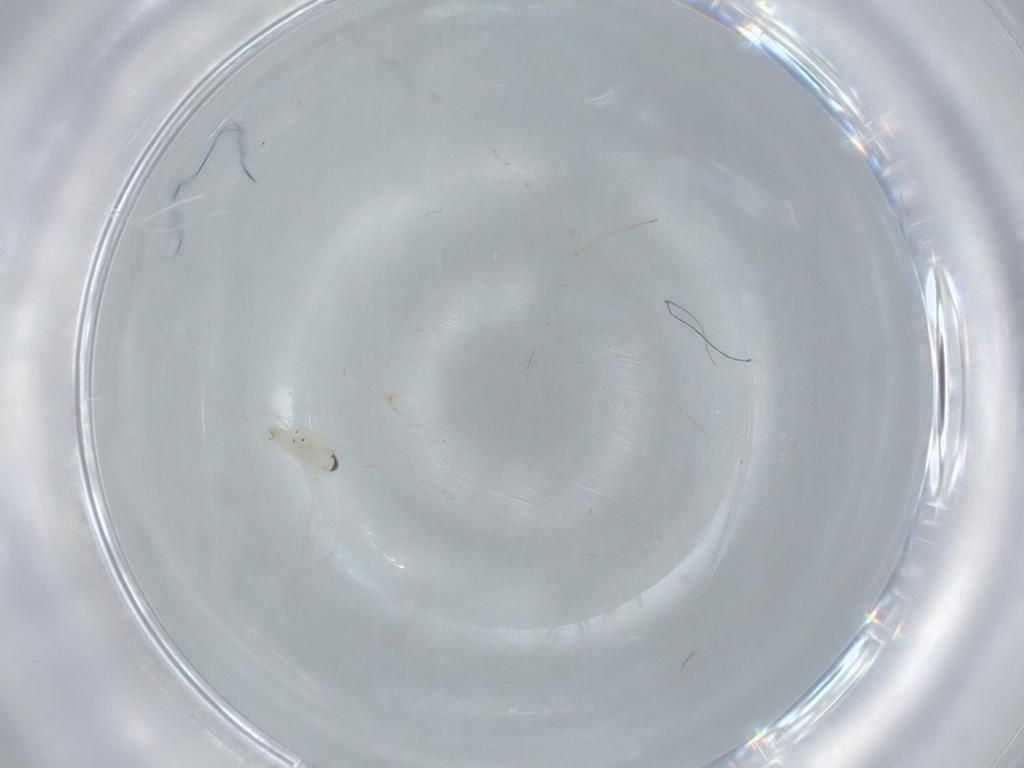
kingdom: Animalia
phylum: Arthropoda
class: Insecta
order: Diptera
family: Cecidomyiidae
